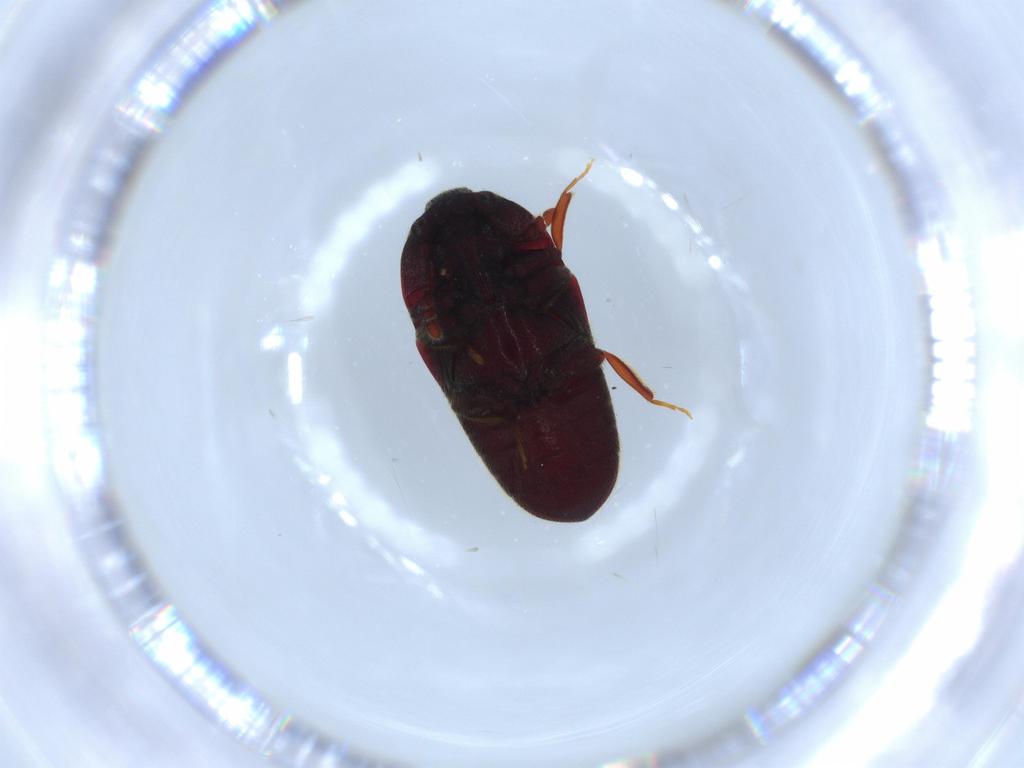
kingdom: Animalia
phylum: Arthropoda
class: Insecta
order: Coleoptera
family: Throscidae
